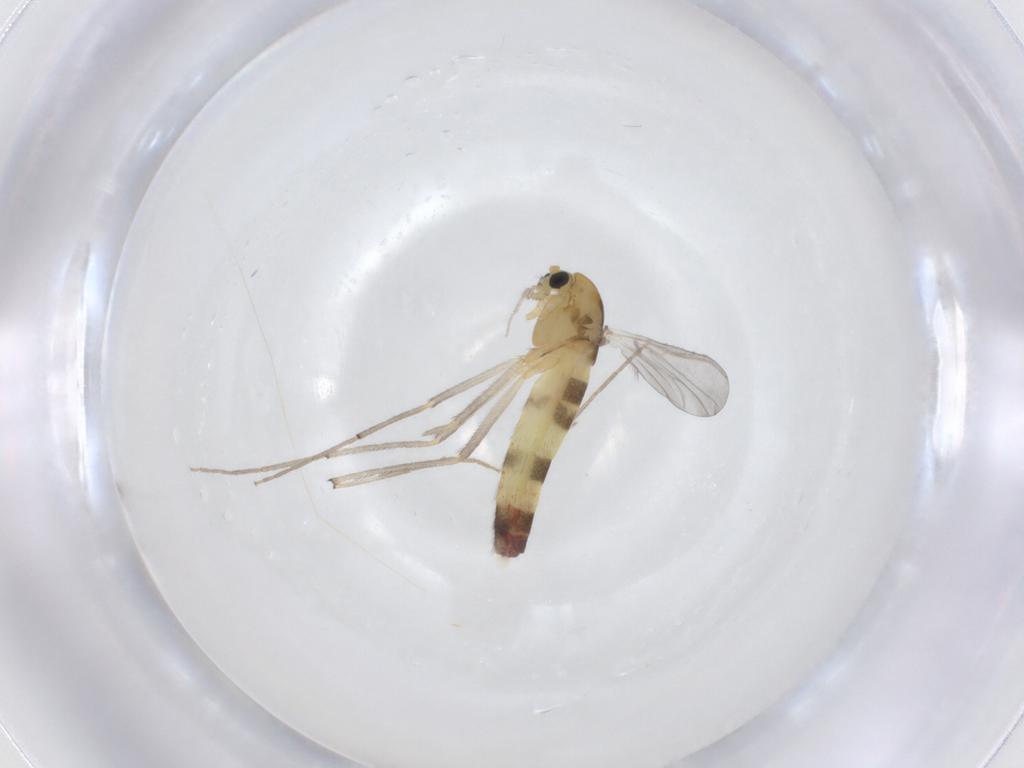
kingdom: Animalia
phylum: Arthropoda
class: Insecta
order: Diptera
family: Chironomidae
